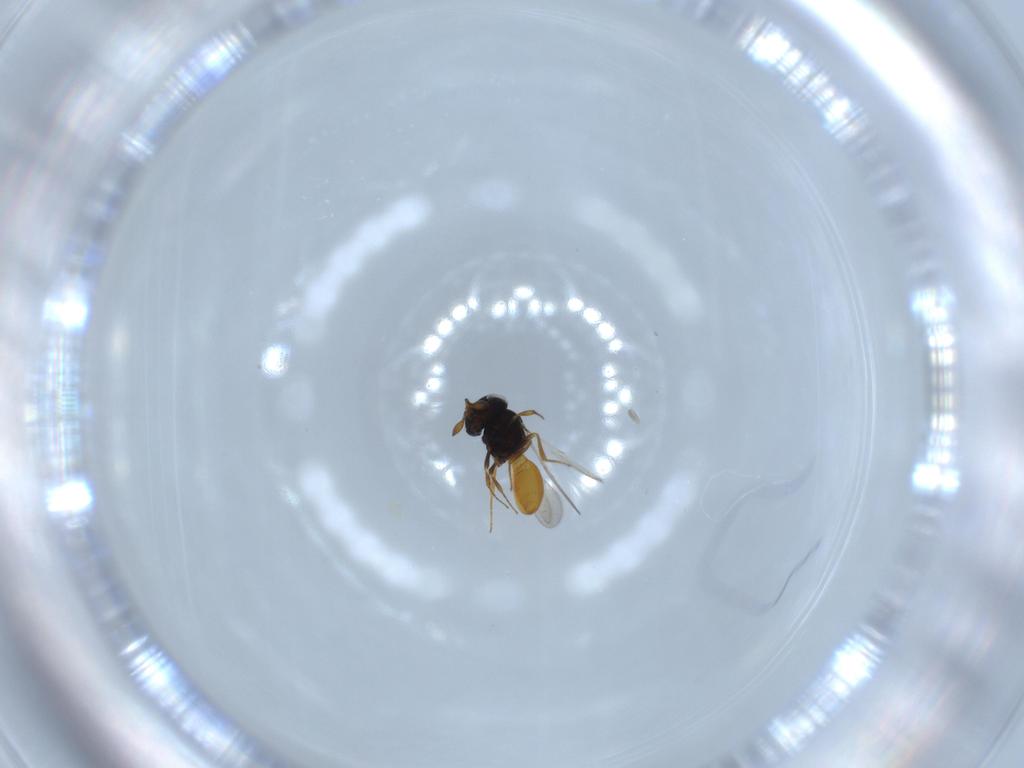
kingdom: Animalia
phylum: Arthropoda
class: Insecta
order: Hymenoptera
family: Scelionidae
